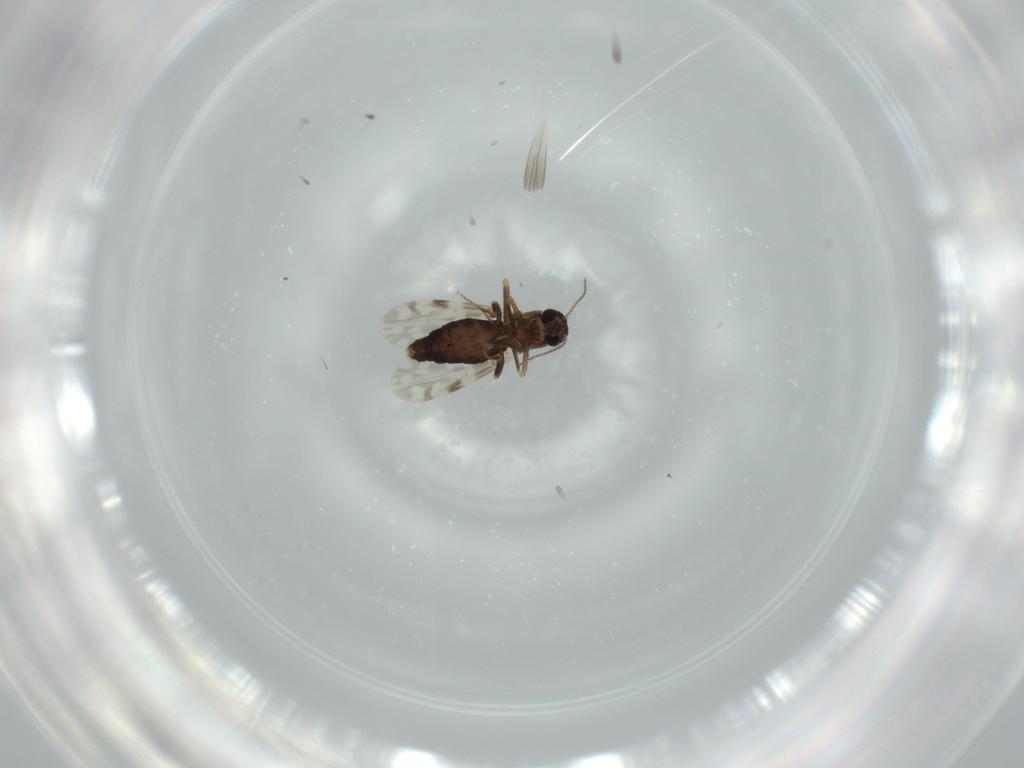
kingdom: Animalia
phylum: Arthropoda
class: Insecta
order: Diptera
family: Ceratopogonidae
